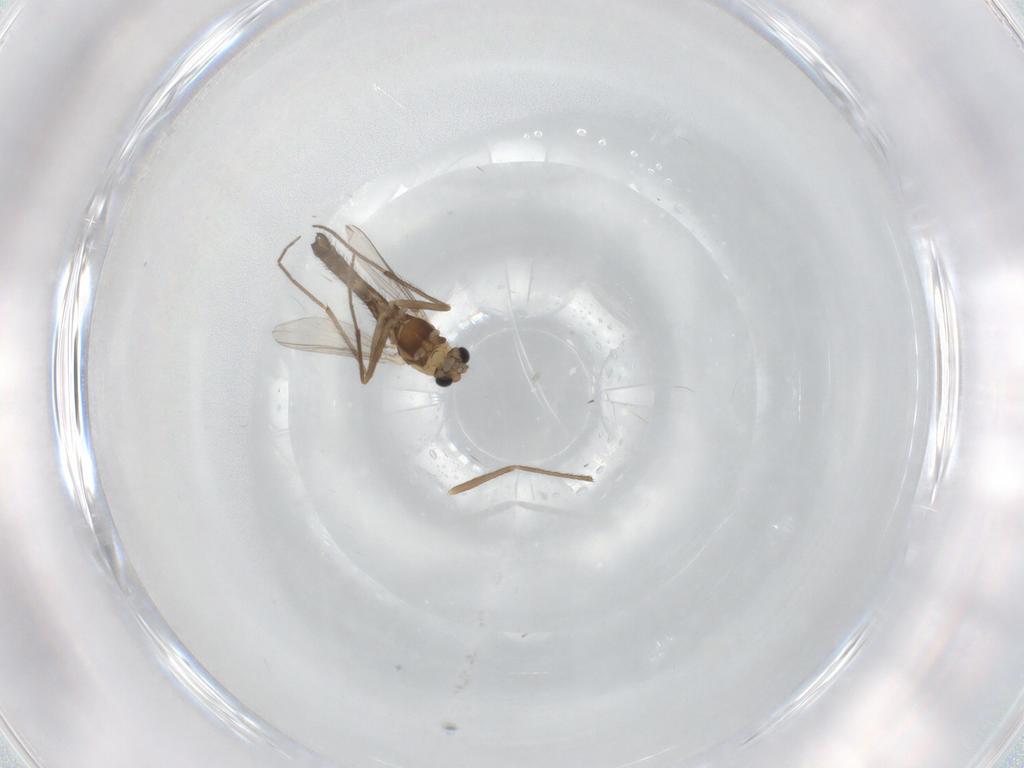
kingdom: Animalia
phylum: Arthropoda
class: Insecta
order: Diptera
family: Chironomidae
